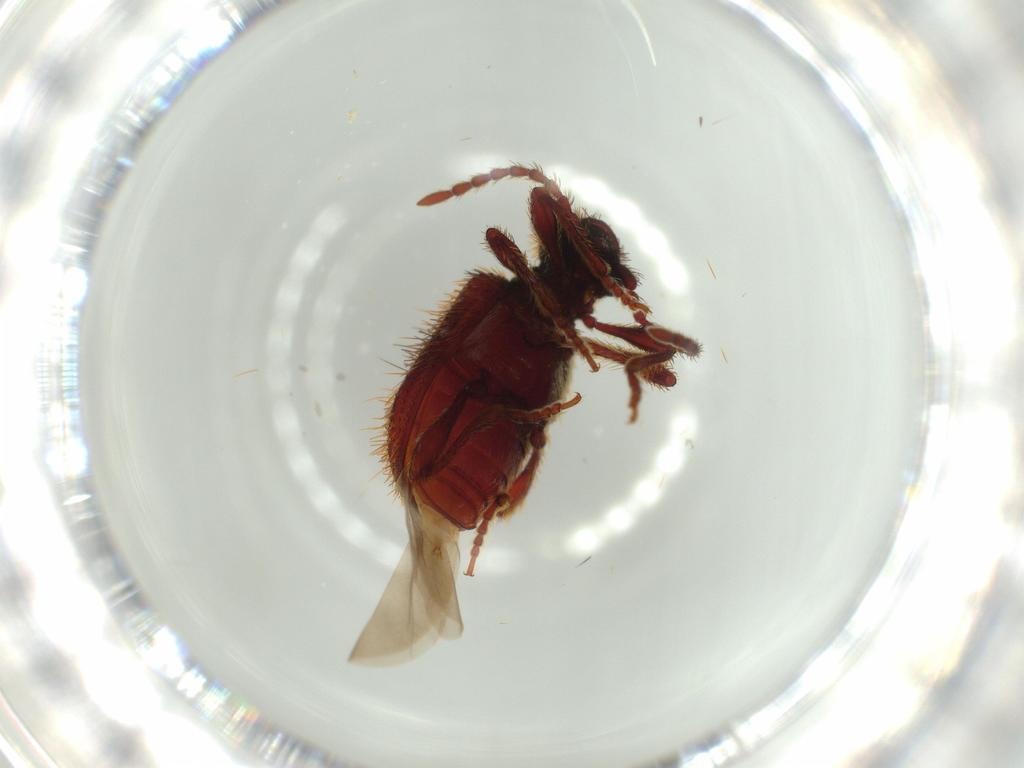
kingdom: Animalia
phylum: Arthropoda
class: Insecta
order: Coleoptera
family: Ptinidae
